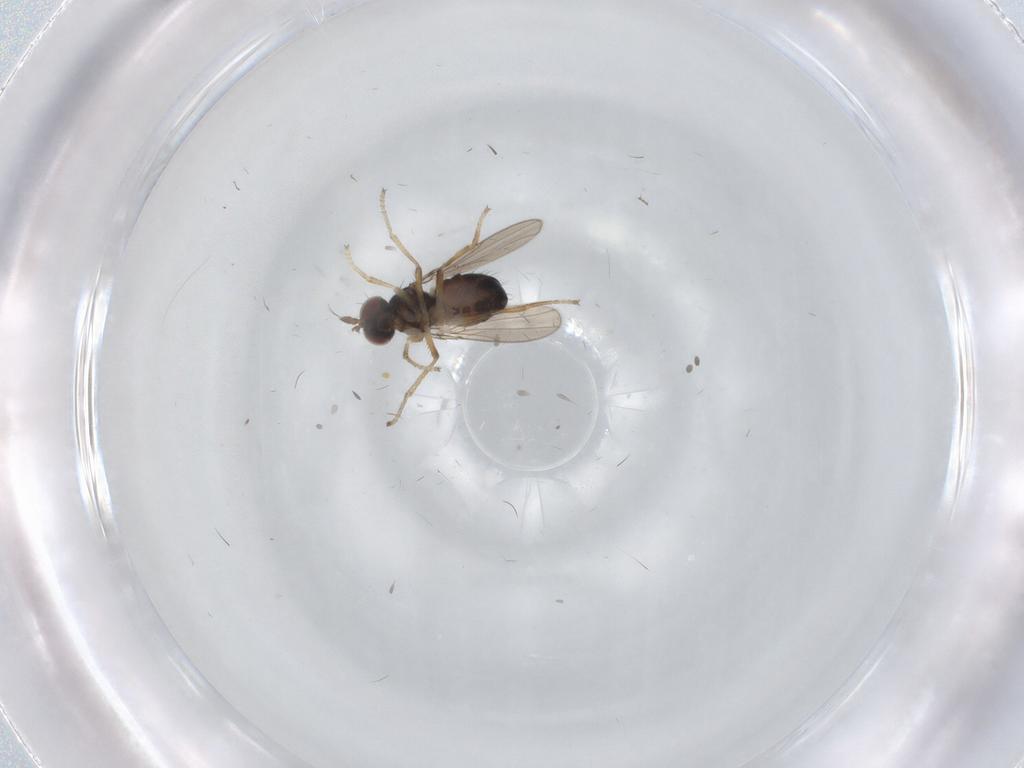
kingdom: Animalia
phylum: Arthropoda
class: Insecta
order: Diptera
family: Ephydridae
